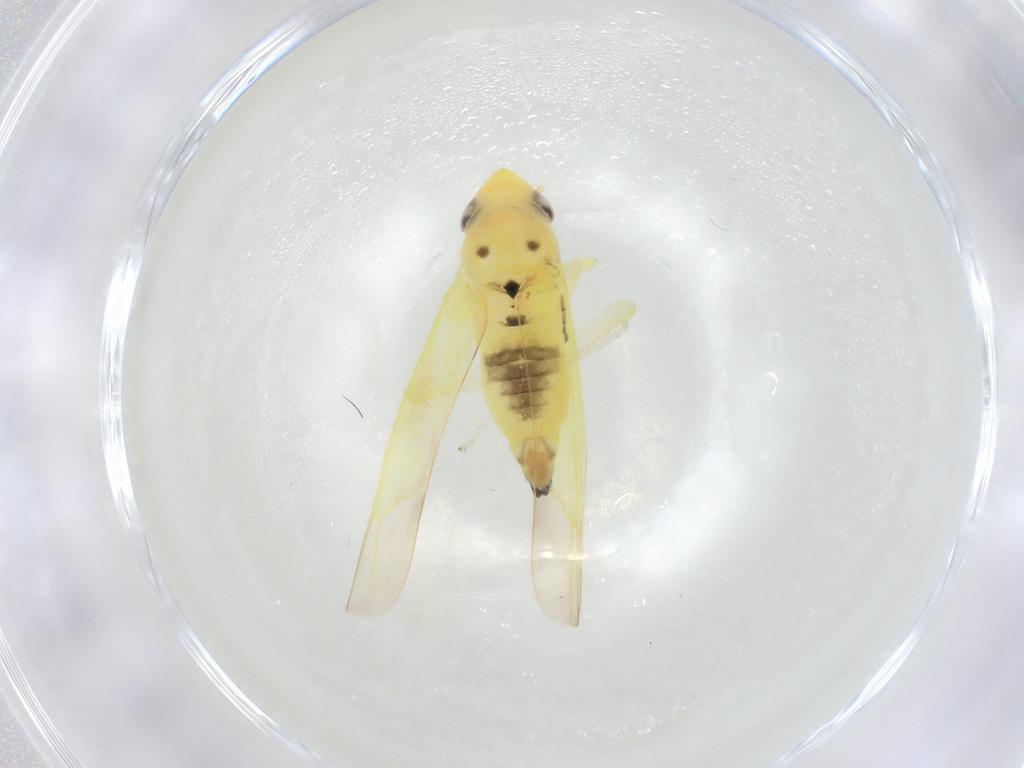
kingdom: Animalia
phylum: Arthropoda
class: Insecta
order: Hemiptera
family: Cicadellidae
